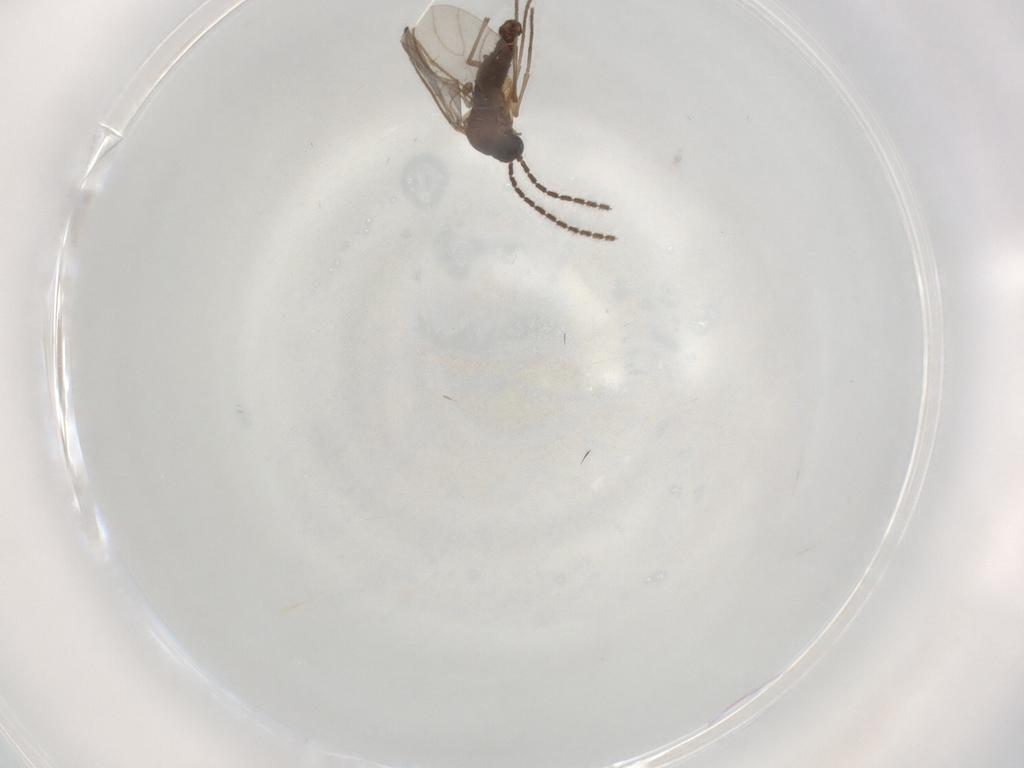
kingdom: Animalia
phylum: Arthropoda
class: Insecta
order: Diptera
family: Sciaridae
